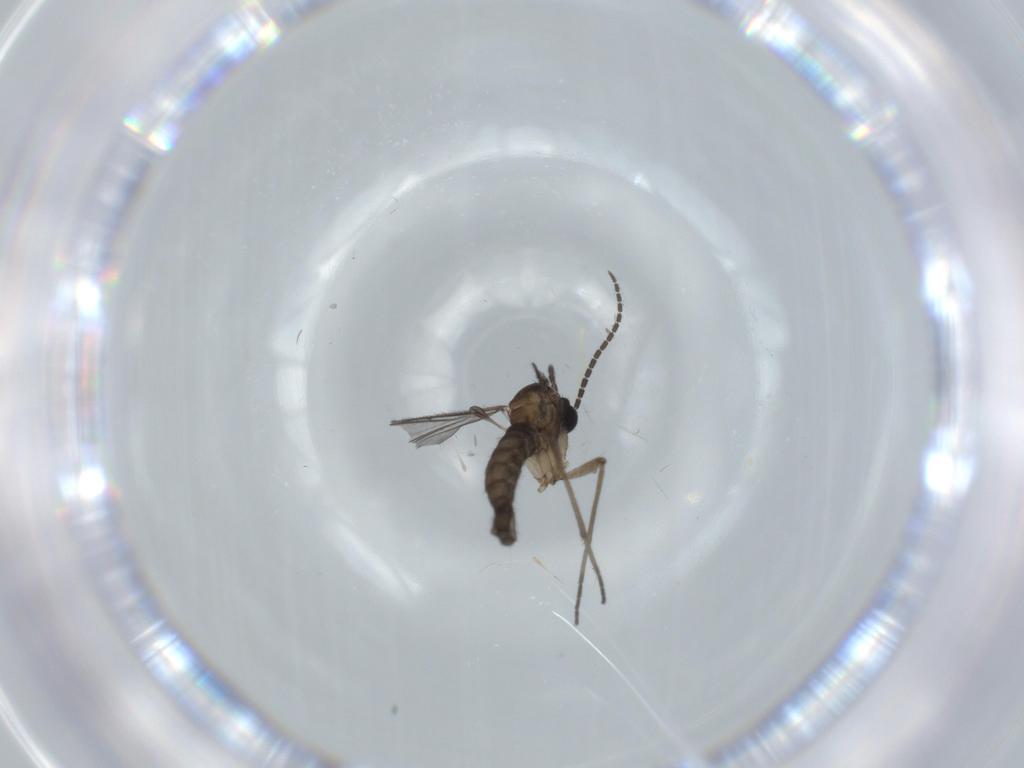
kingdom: Animalia
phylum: Arthropoda
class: Insecta
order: Diptera
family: Sciaridae
